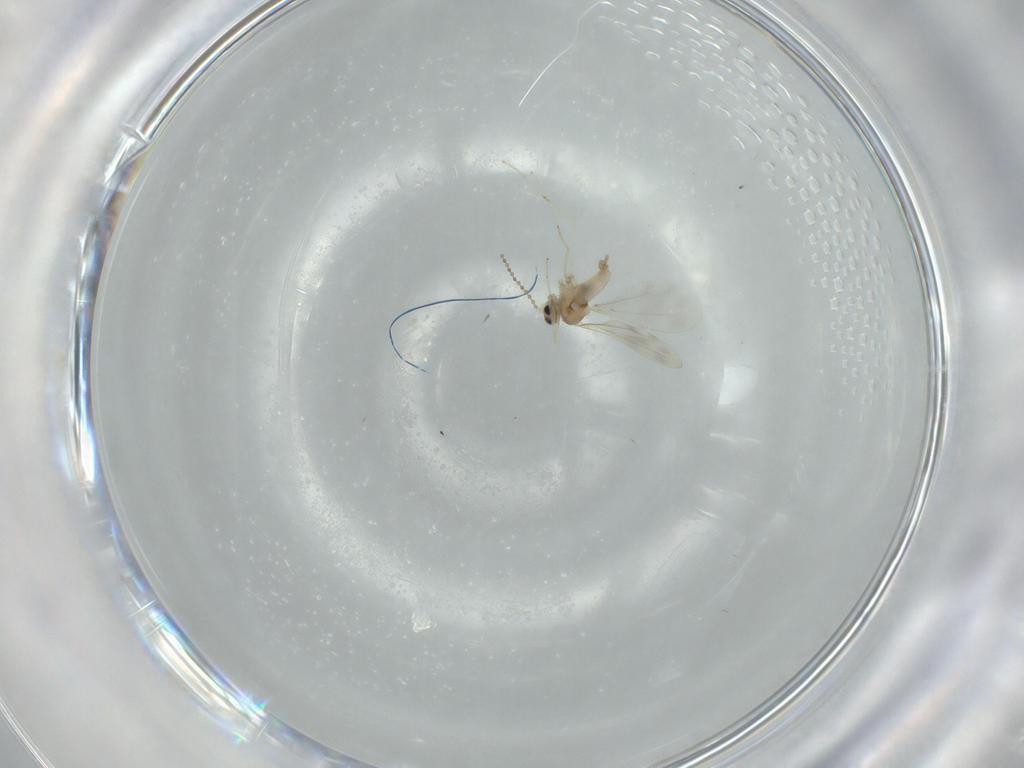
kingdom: Animalia
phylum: Arthropoda
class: Insecta
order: Diptera
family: Cecidomyiidae
